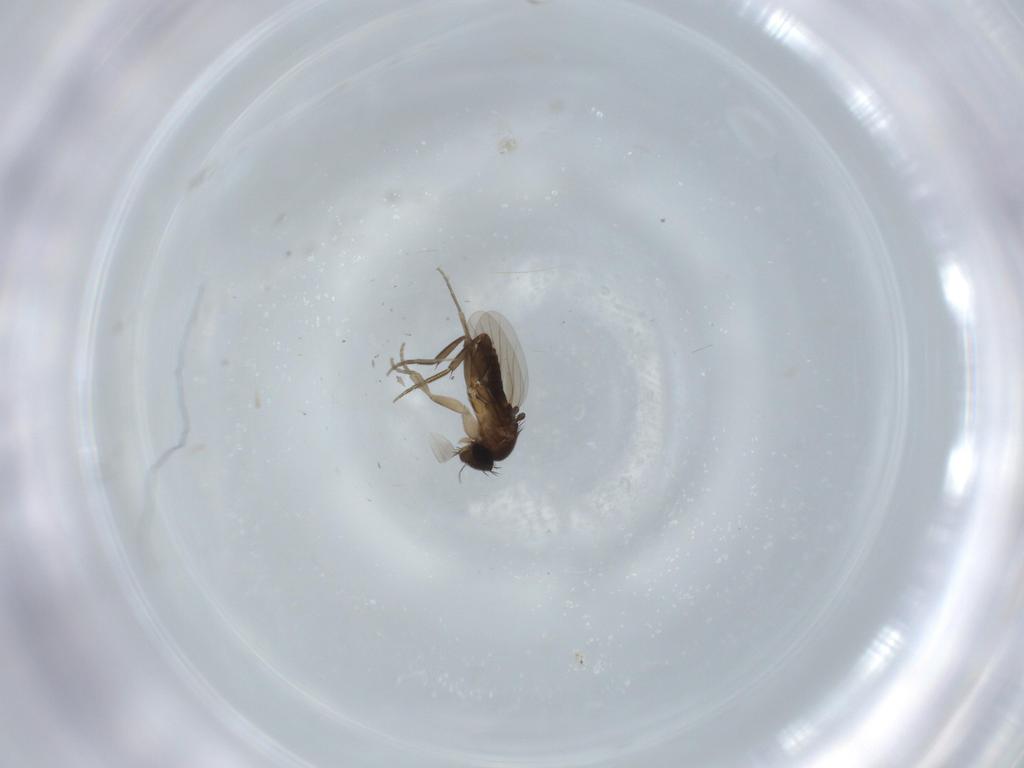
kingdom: Animalia
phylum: Arthropoda
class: Insecta
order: Diptera
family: Phoridae
